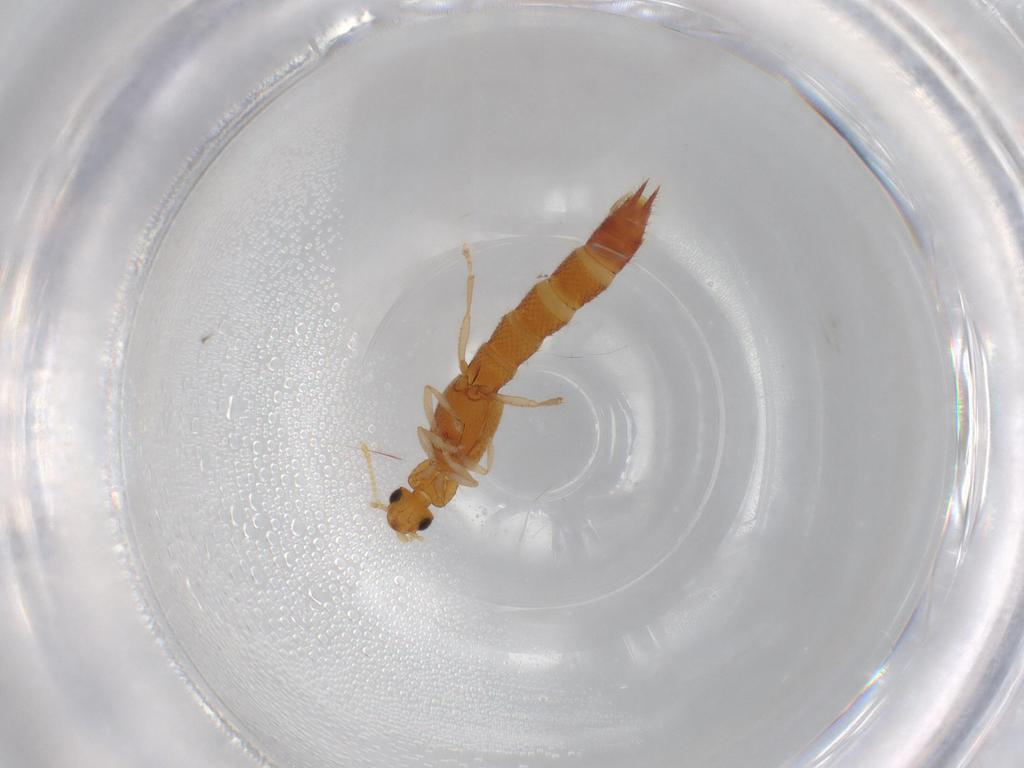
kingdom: Animalia
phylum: Arthropoda
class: Insecta
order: Coleoptera
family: Staphylinidae
